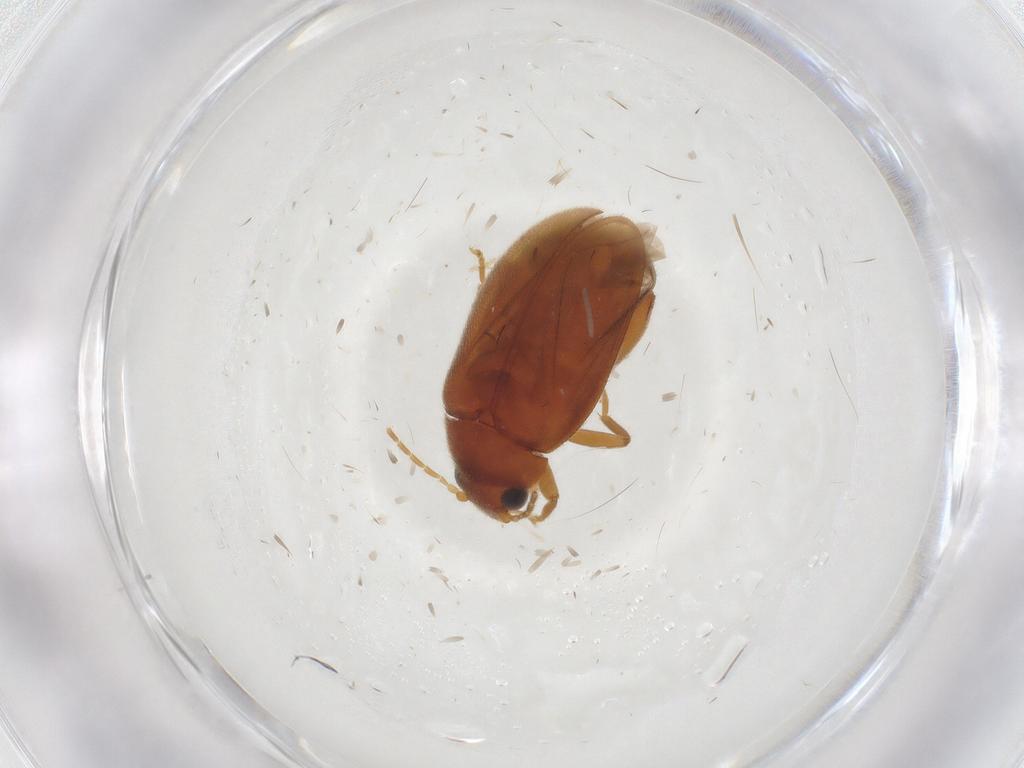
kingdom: Animalia
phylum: Arthropoda
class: Insecta
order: Coleoptera
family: Scirtidae
